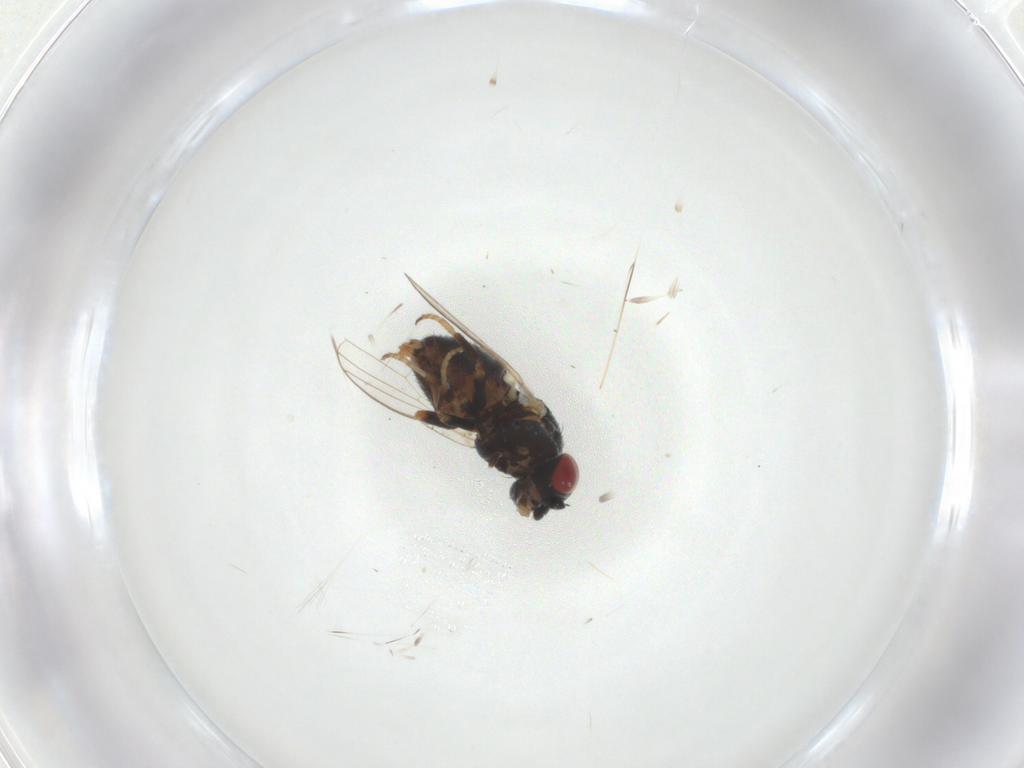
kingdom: Animalia
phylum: Arthropoda
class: Insecta
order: Diptera
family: Chamaemyiidae
